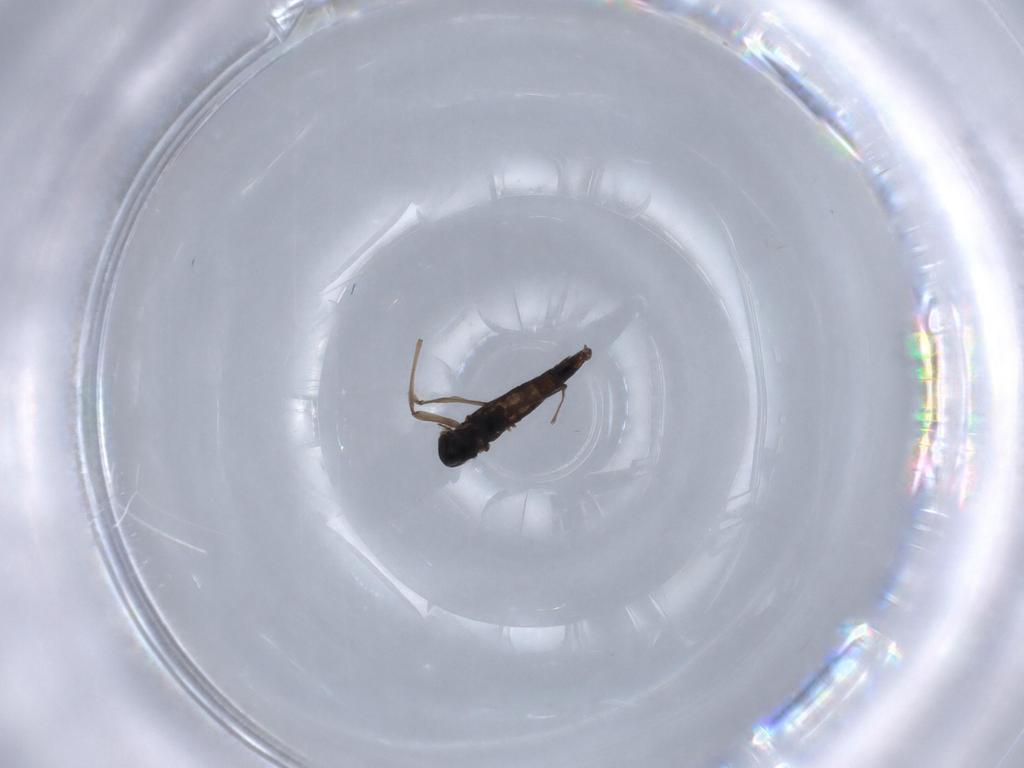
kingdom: Animalia
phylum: Arthropoda
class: Insecta
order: Diptera
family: Chironomidae
